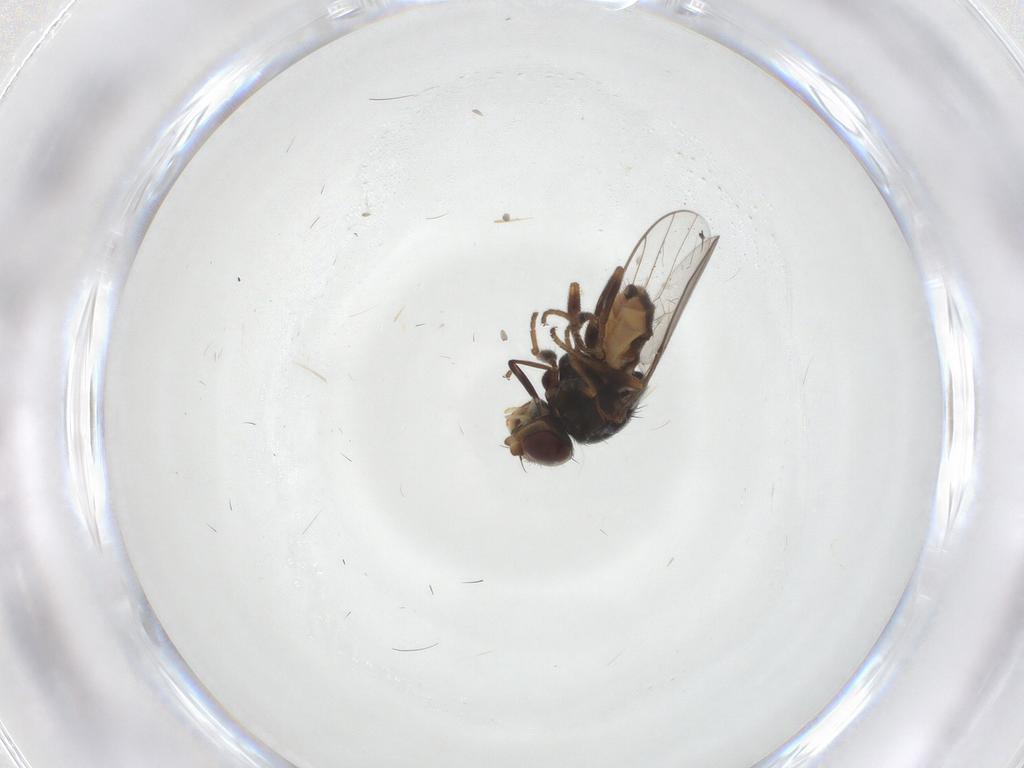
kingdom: Animalia
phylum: Arthropoda
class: Insecta
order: Diptera
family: Chloropidae
